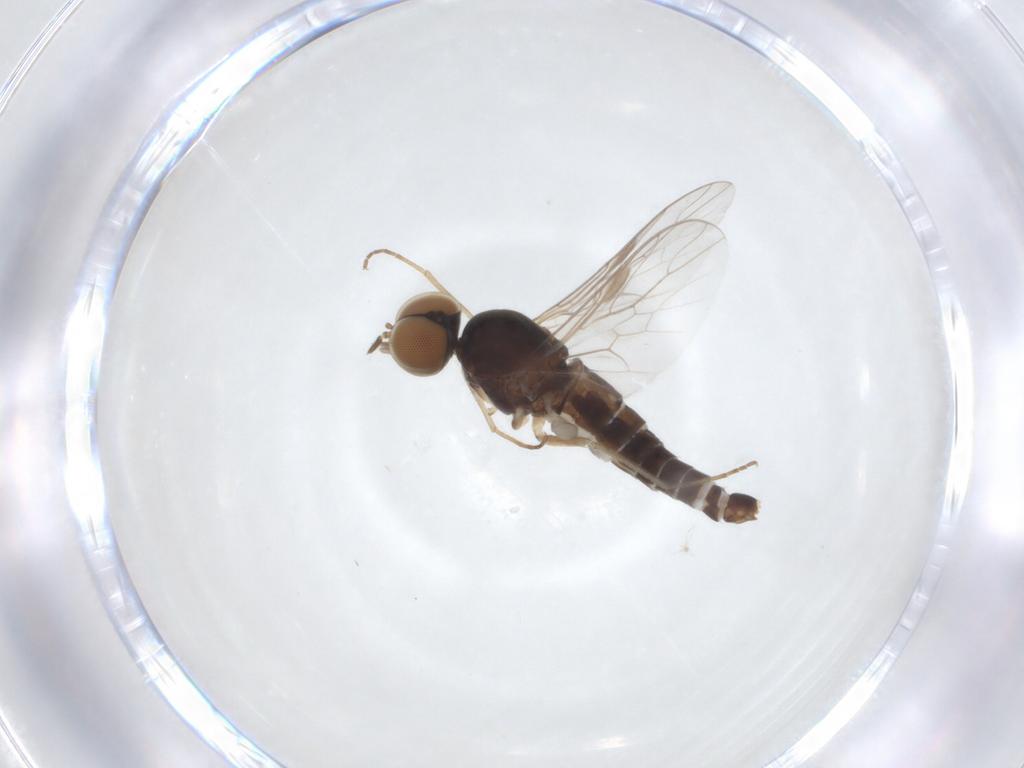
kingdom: Animalia
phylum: Arthropoda
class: Insecta
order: Diptera
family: Scenopinidae
